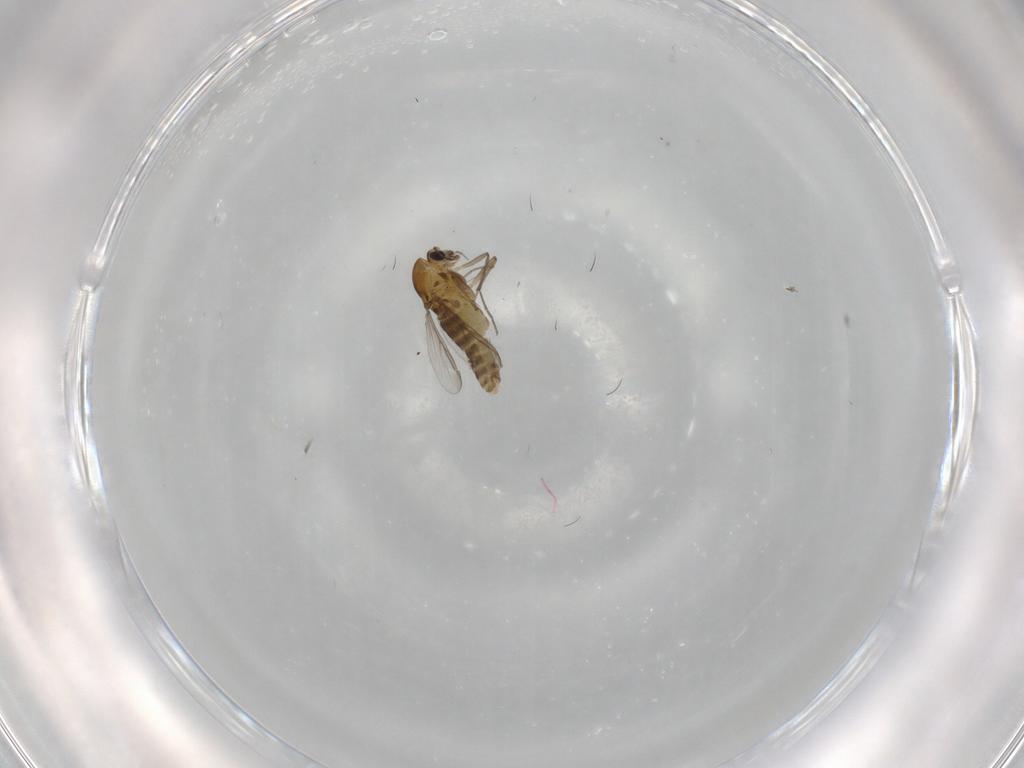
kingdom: Animalia
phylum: Arthropoda
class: Insecta
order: Diptera
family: Chironomidae
